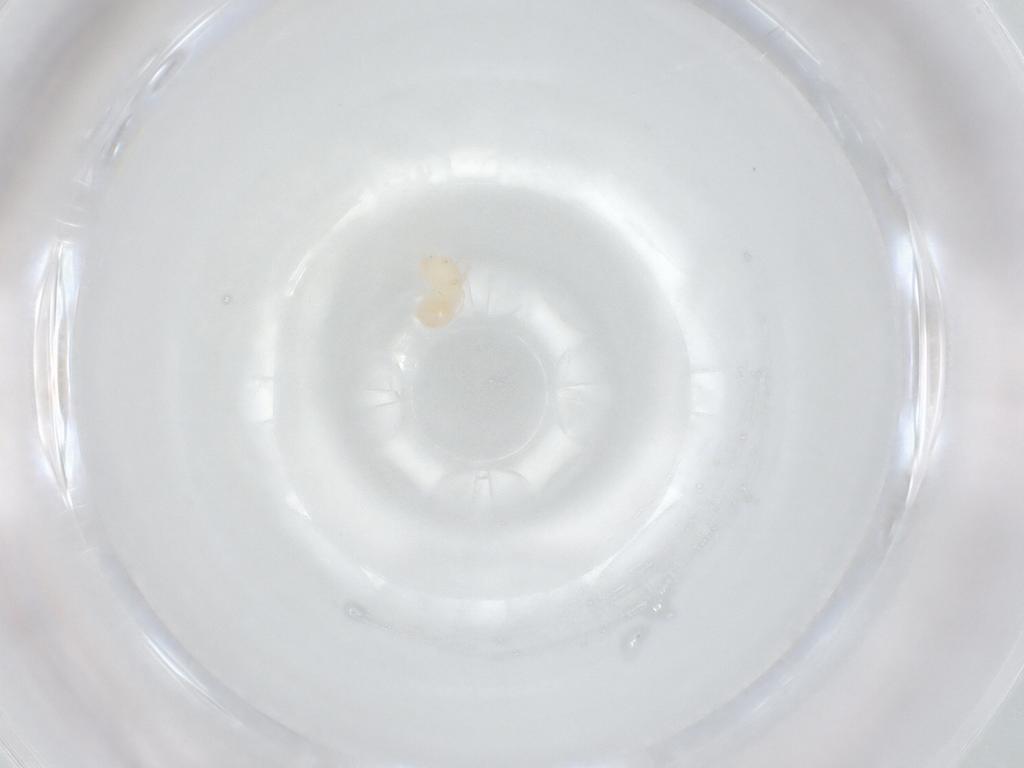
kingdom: Animalia
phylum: Arthropoda
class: Arachnida
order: Trombidiformes
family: Hydryphantidae
